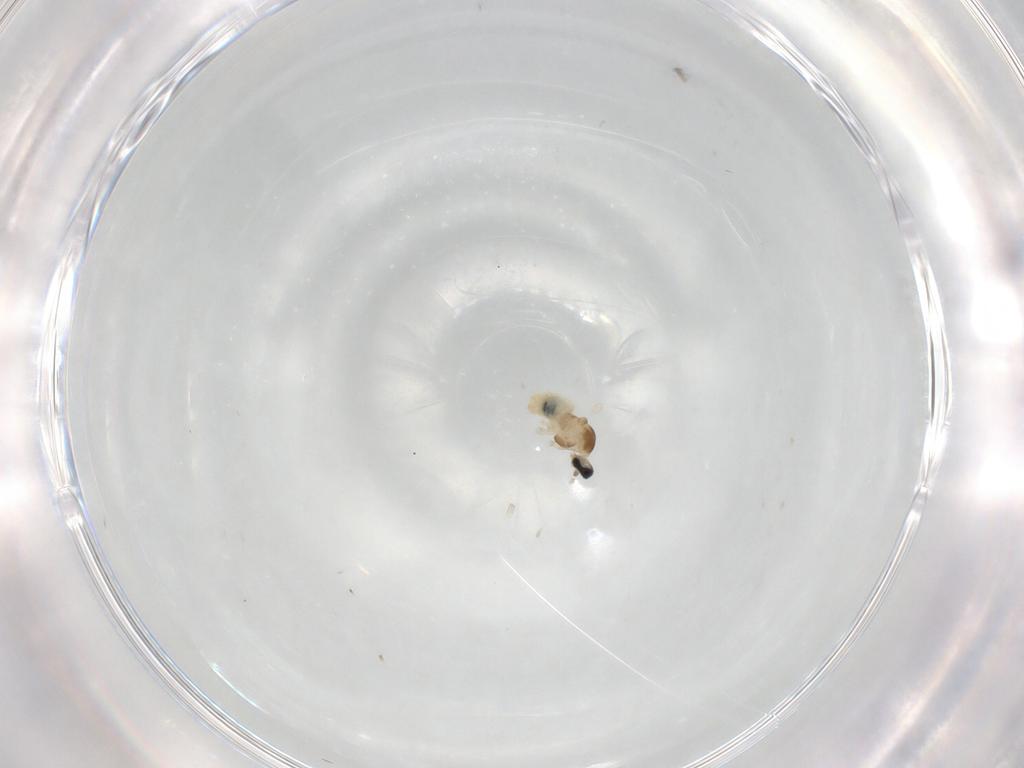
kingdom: Animalia
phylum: Arthropoda
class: Insecta
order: Diptera
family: Cecidomyiidae
